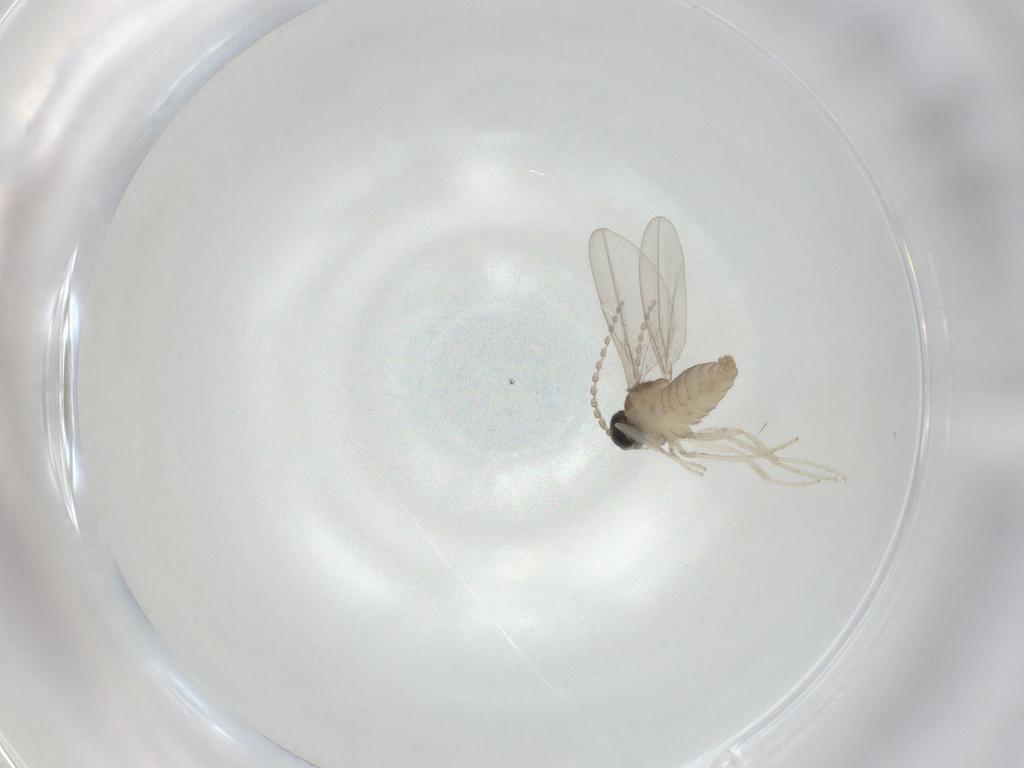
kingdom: Animalia
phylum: Arthropoda
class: Insecta
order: Diptera
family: Cecidomyiidae
